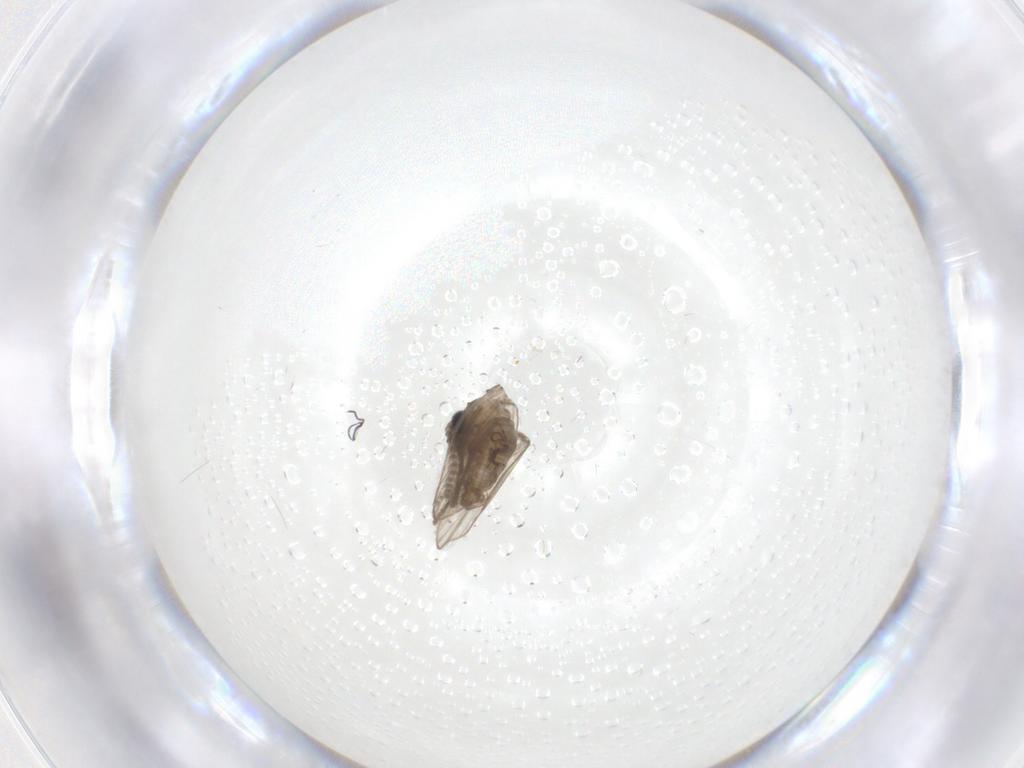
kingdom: Animalia
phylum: Arthropoda
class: Insecta
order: Diptera
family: Psychodidae
